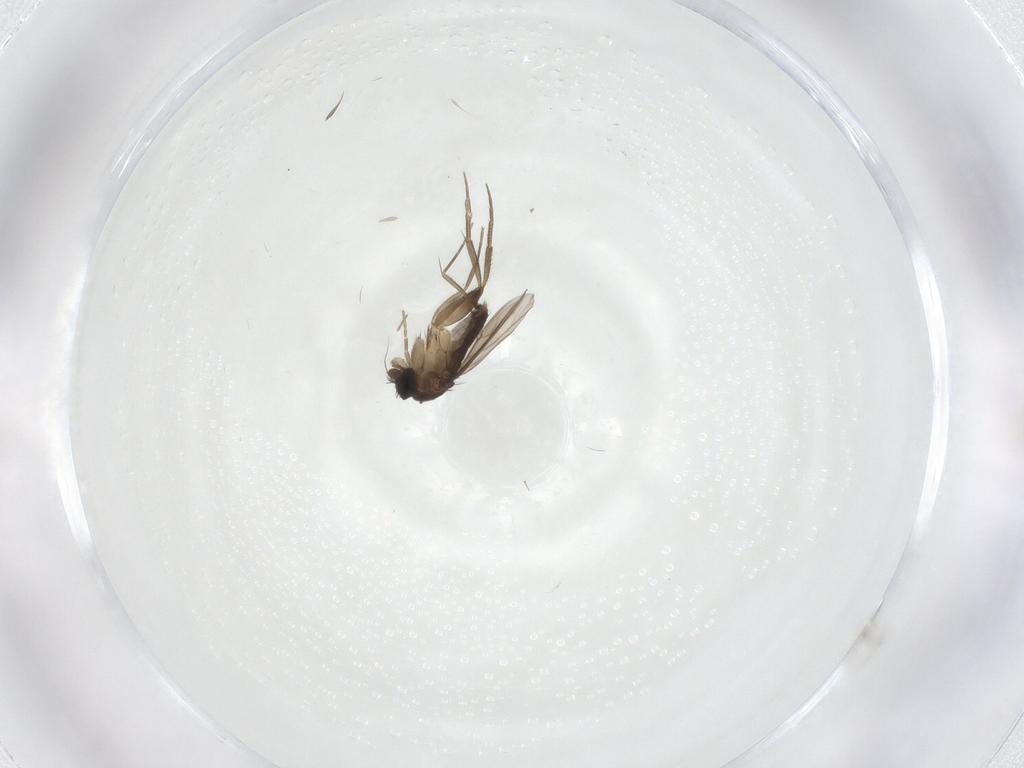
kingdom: Animalia
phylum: Arthropoda
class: Insecta
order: Diptera
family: Phoridae
